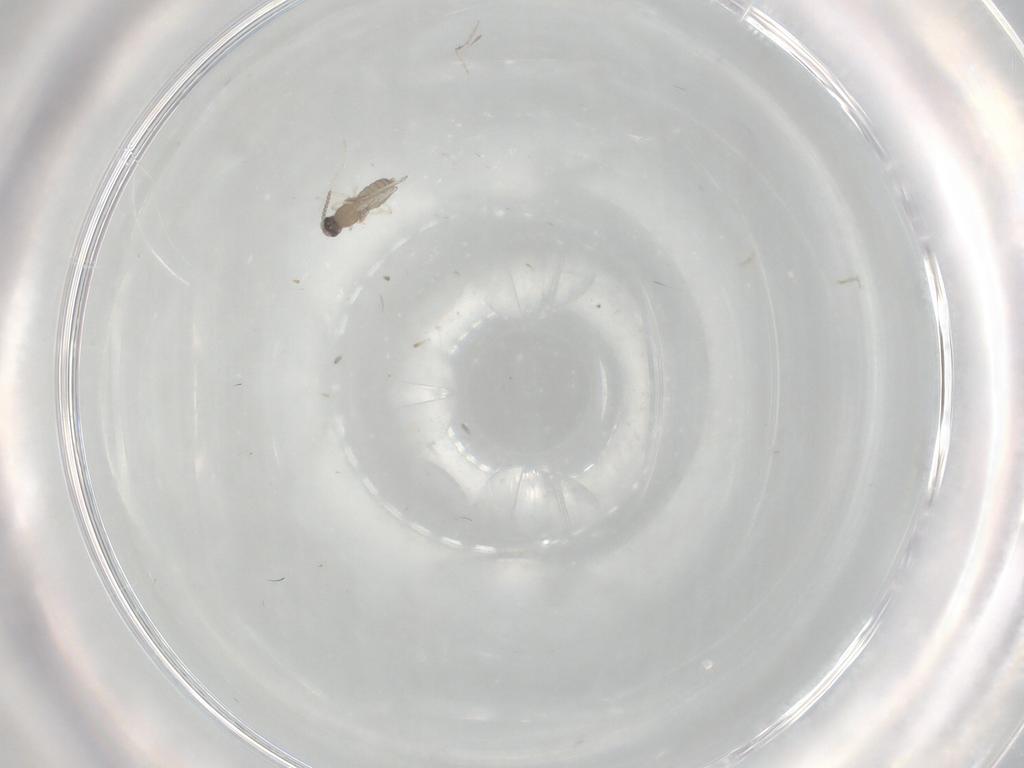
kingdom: Animalia
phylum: Arthropoda
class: Insecta
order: Diptera
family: Cecidomyiidae
